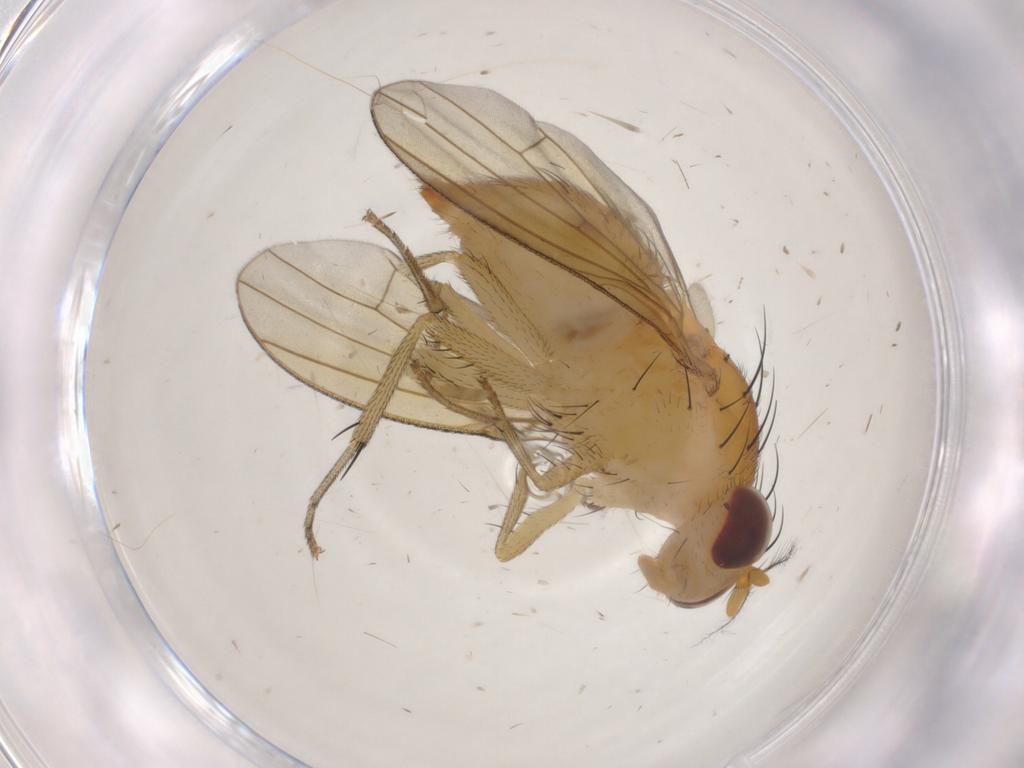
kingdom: Animalia
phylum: Arthropoda
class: Insecta
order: Diptera
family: Lauxaniidae
